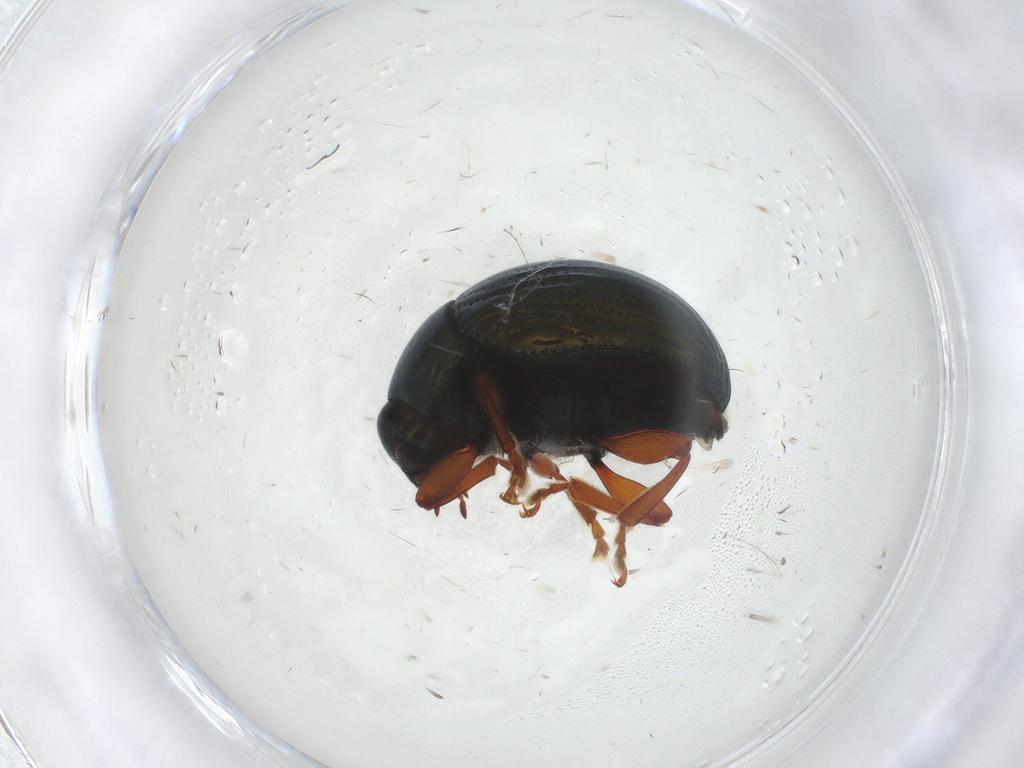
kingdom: Animalia
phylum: Arthropoda
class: Insecta
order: Coleoptera
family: Chrysomelidae
